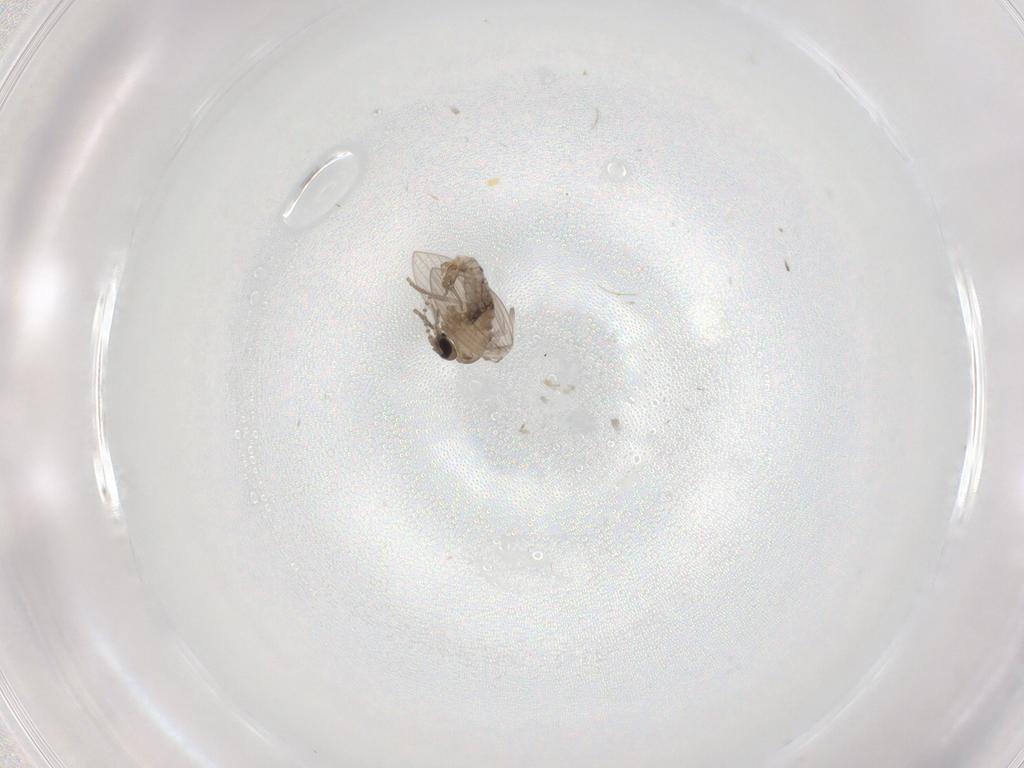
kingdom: Animalia
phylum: Arthropoda
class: Insecta
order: Diptera
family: Psychodidae
